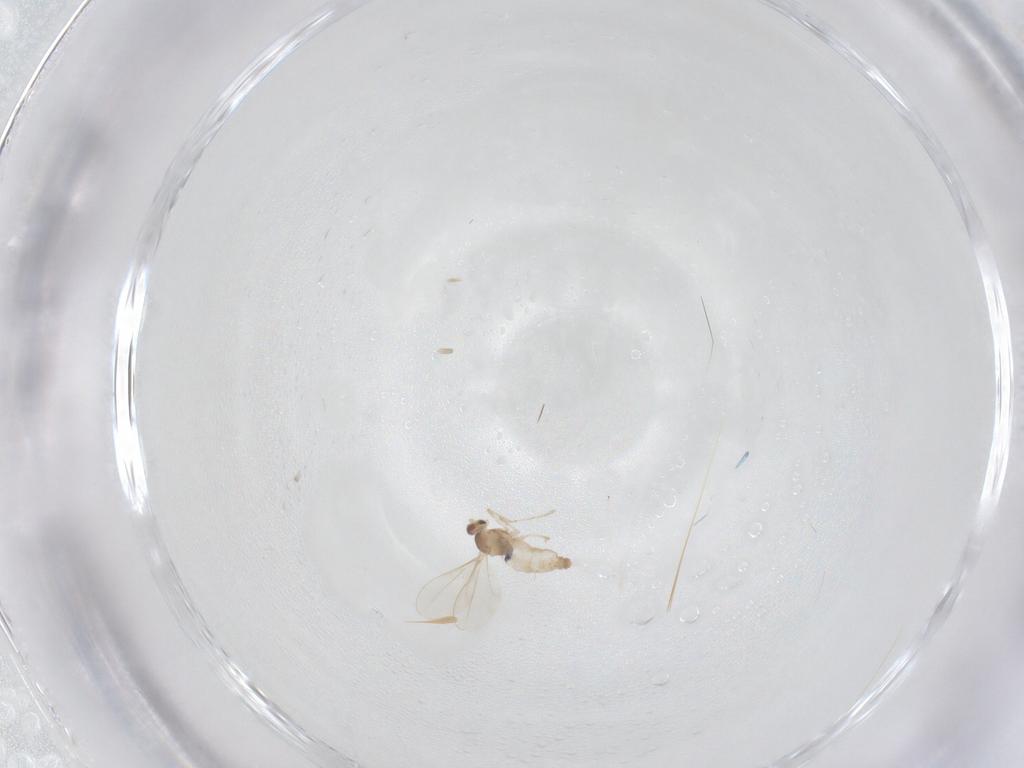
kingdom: Animalia
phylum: Arthropoda
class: Insecta
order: Diptera
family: Cecidomyiidae
